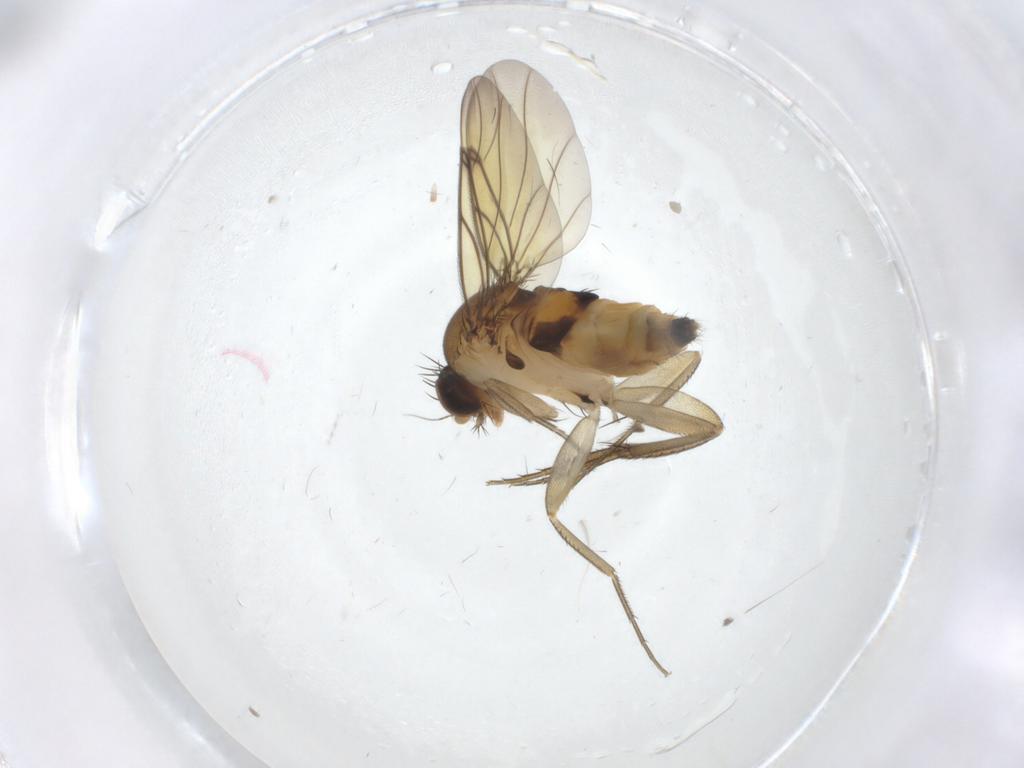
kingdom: Animalia
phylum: Arthropoda
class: Insecta
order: Diptera
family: Tipulidae
